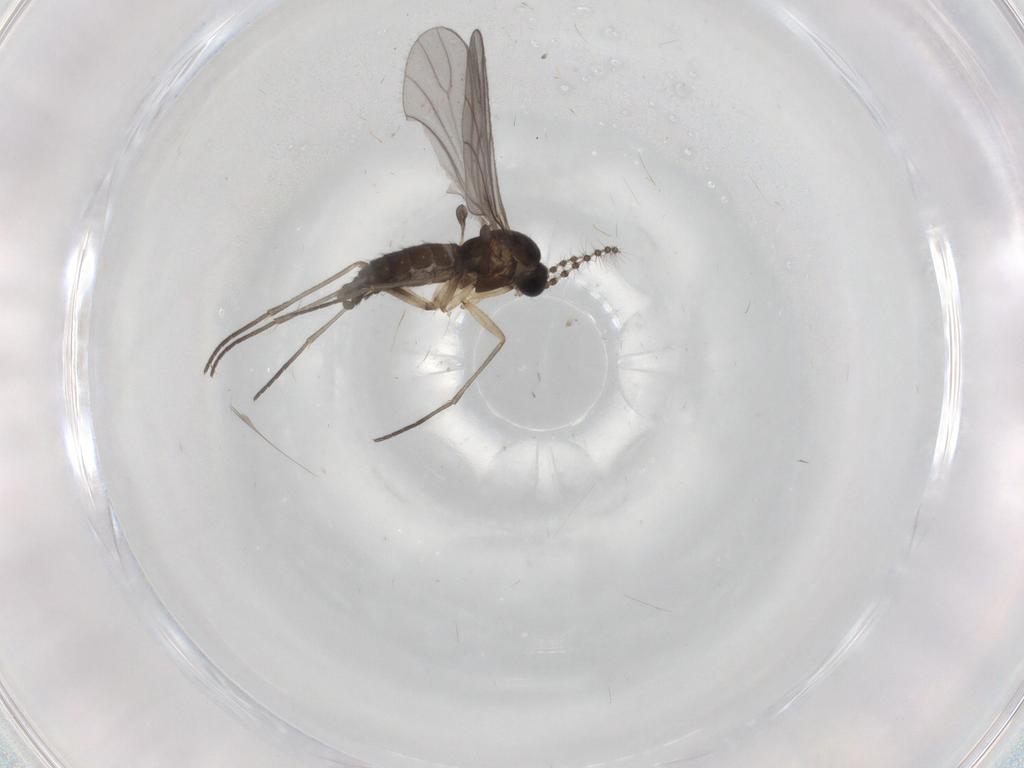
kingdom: Animalia
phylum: Arthropoda
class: Insecta
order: Diptera
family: Sciaridae
